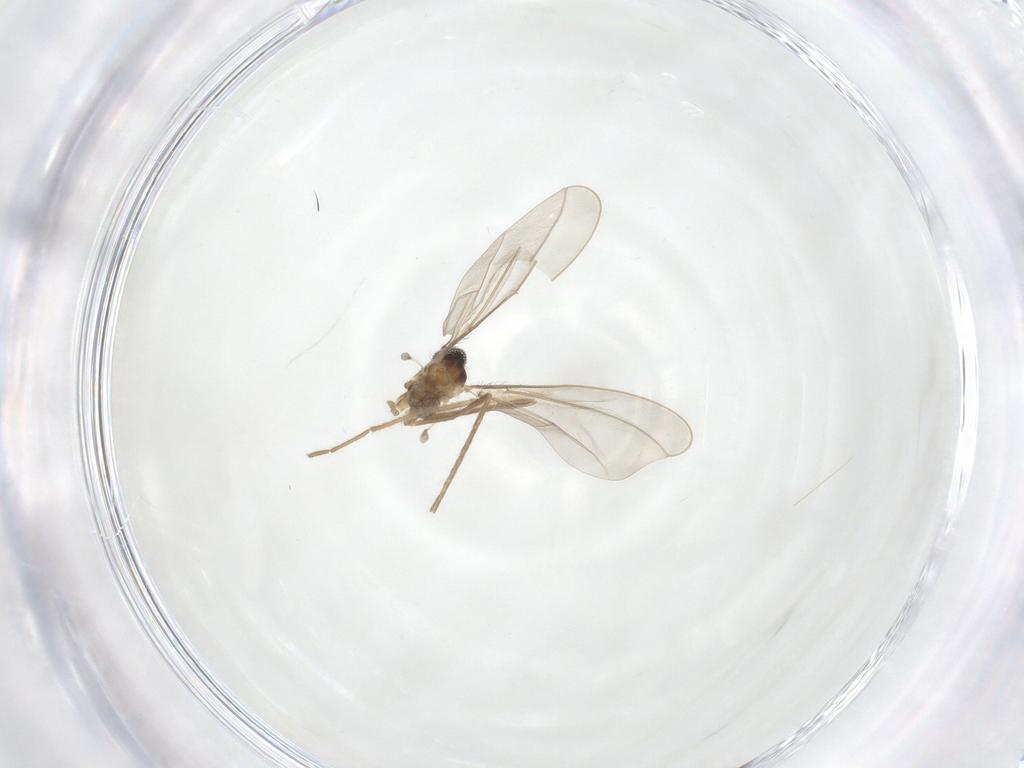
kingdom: Animalia
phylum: Arthropoda
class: Insecta
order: Diptera
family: Cecidomyiidae
